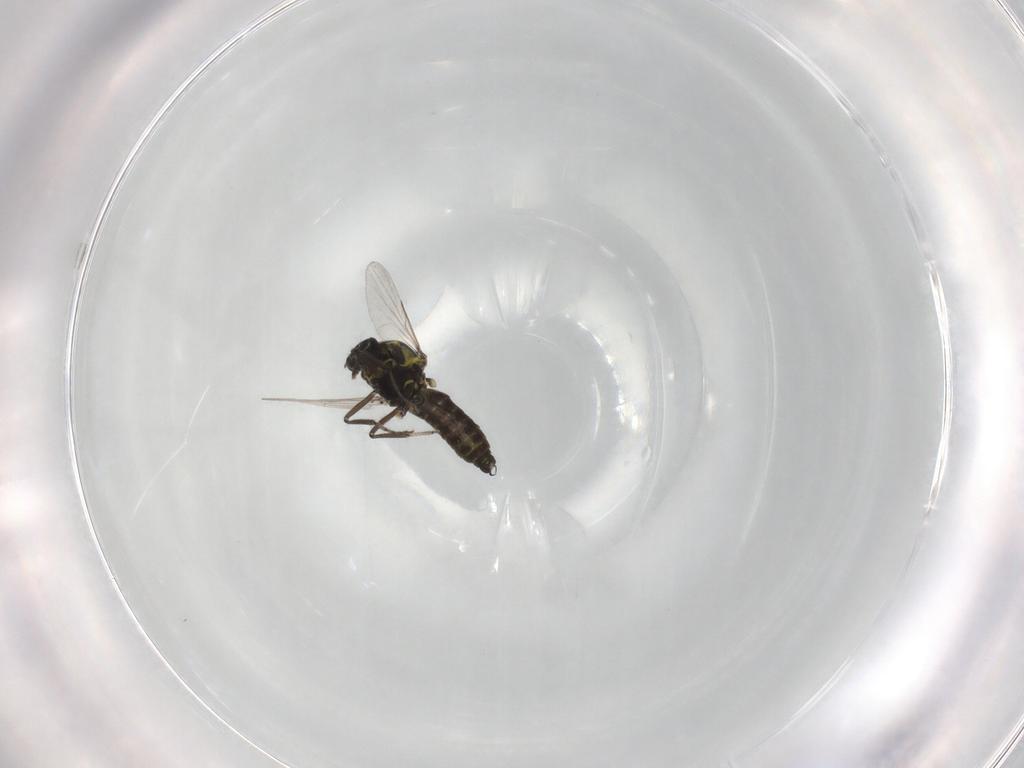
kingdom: Animalia
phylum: Arthropoda
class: Insecta
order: Diptera
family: Ceratopogonidae
